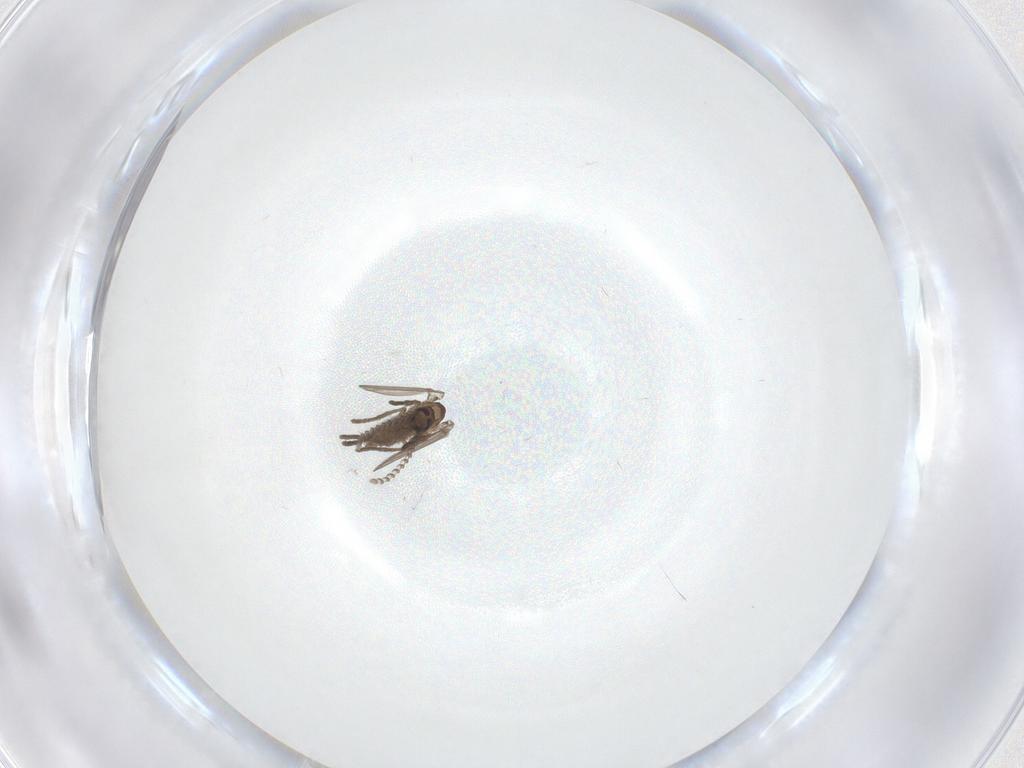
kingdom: Animalia
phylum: Arthropoda
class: Insecta
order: Diptera
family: Psychodidae
